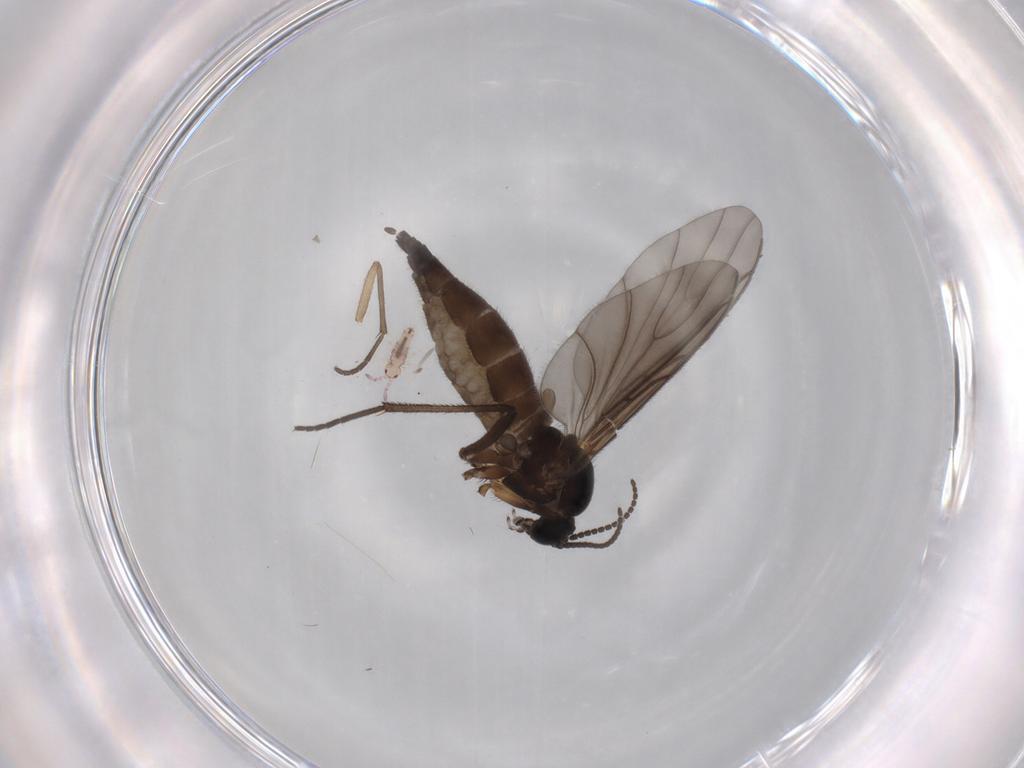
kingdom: Animalia
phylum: Arthropoda
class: Insecta
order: Diptera
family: Sciaridae
